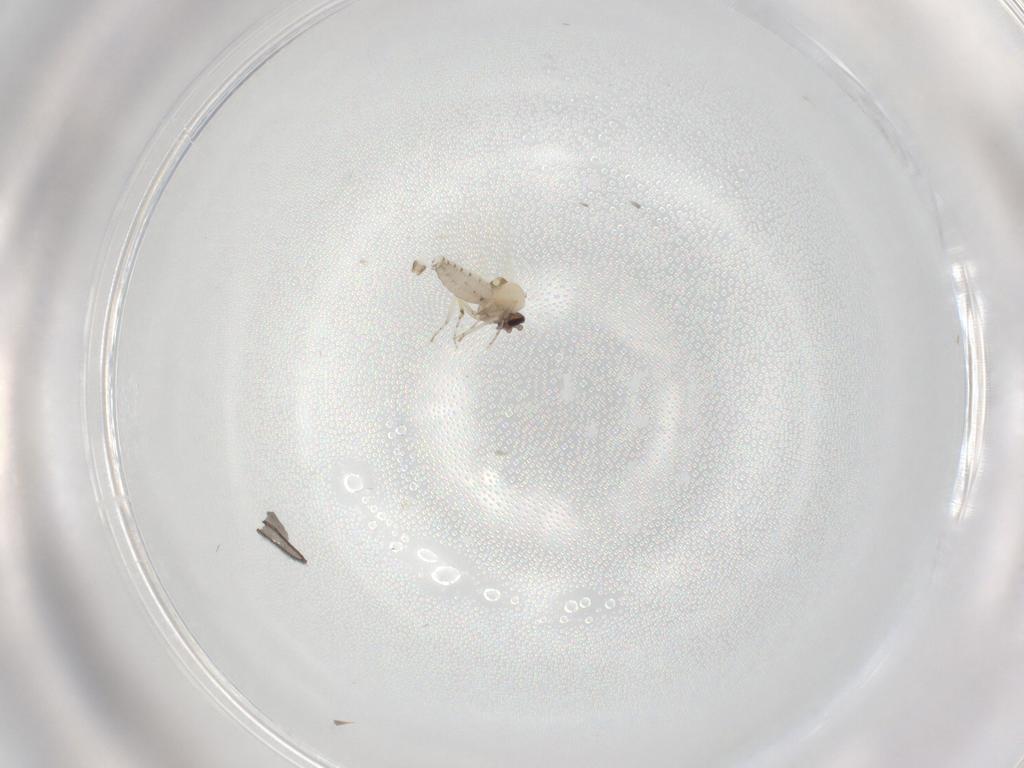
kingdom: Animalia
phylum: Arthropoda
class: Insecta
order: Diptera
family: Ceratopogonidae
